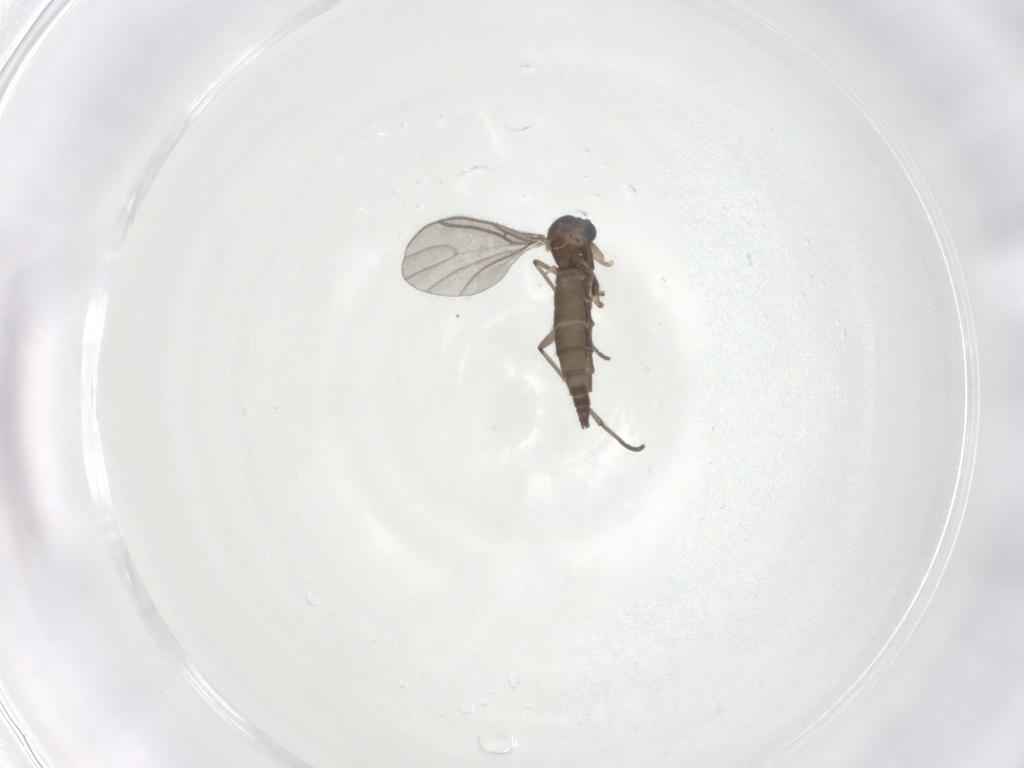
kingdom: Animalia
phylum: Arthropoda
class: Insecta
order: Diptera
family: Sciaridae
